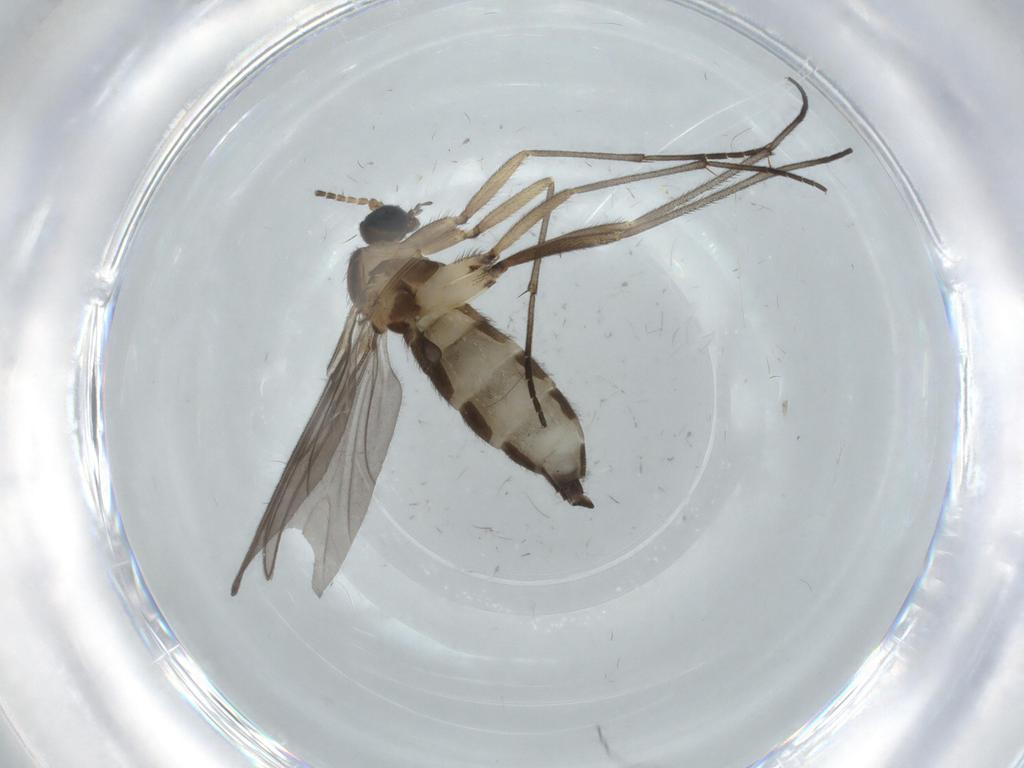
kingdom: Animalia
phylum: Arthropoda
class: Insecta
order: Diptera
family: Sciaridae
